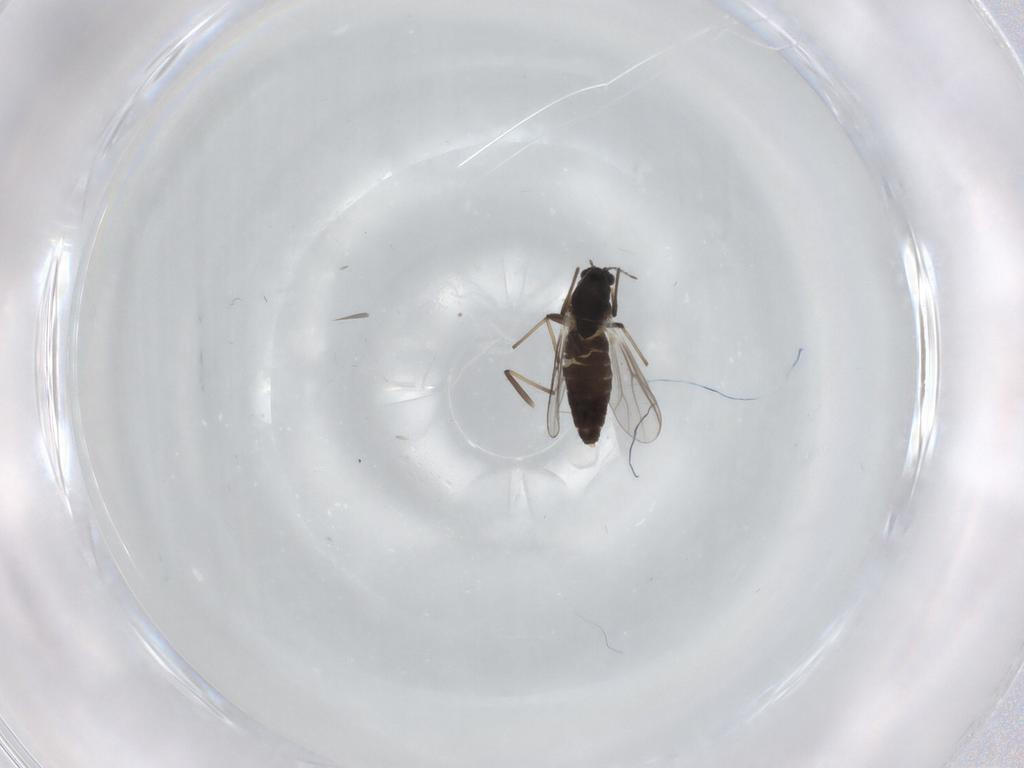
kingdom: Animalia
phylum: Arthropoda
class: Insecta
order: Diptera
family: Chironomidae
